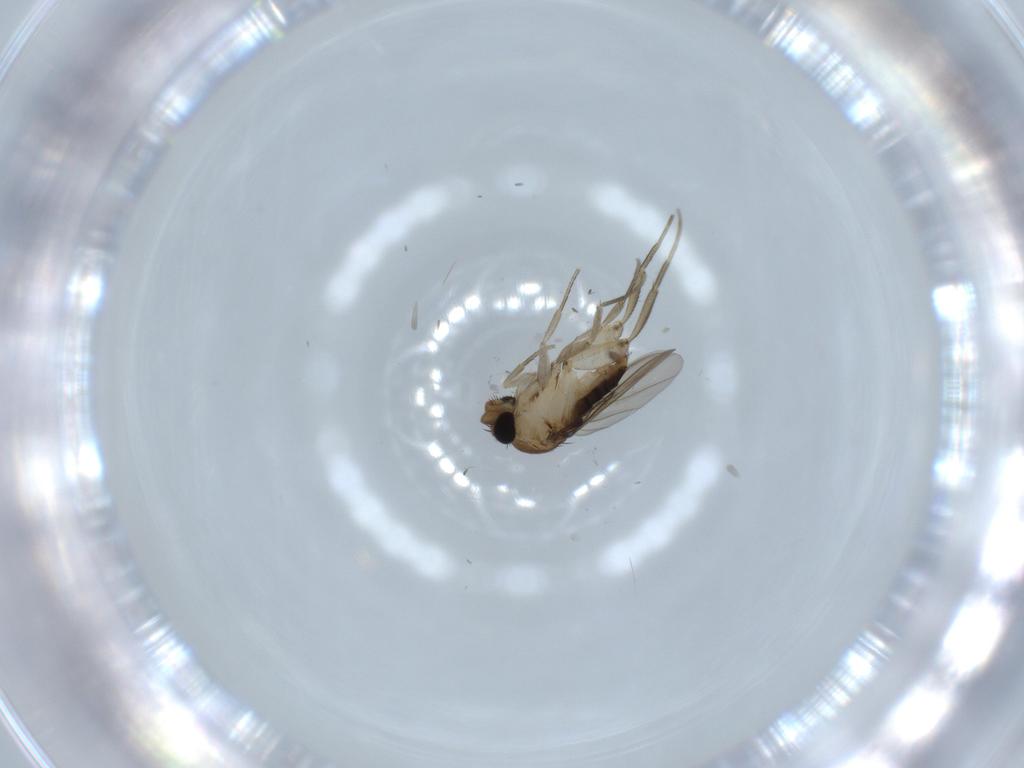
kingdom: Animalia
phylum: Arthropoda
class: Insecta
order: Diptera
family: Phoridae
